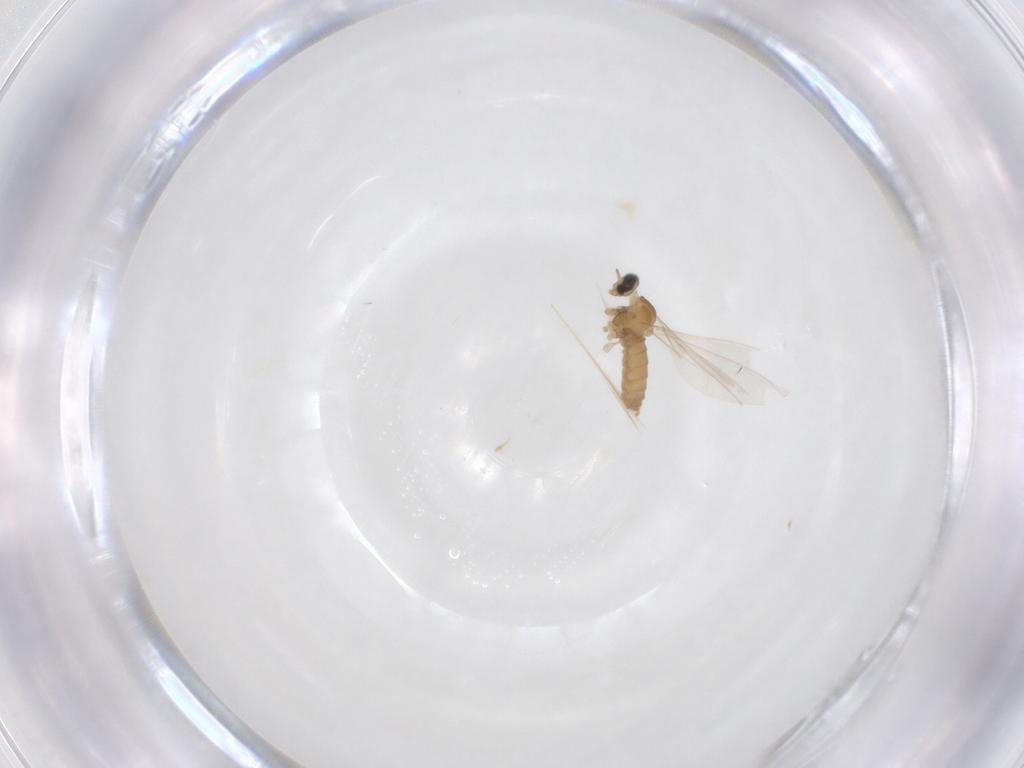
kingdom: Animalia
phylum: Arthropoda
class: Insecta
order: Diptera
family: Cecidomyiidae
